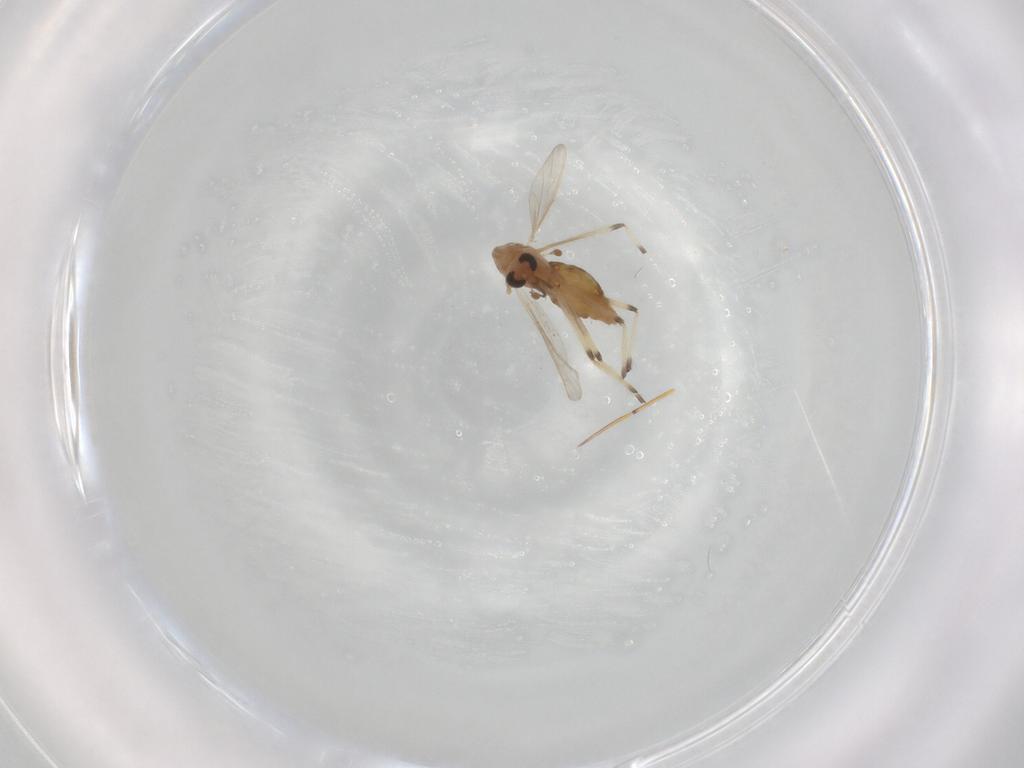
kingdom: Animalia
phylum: Arthropoda
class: Insecta
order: Diptera
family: Chironomidae
